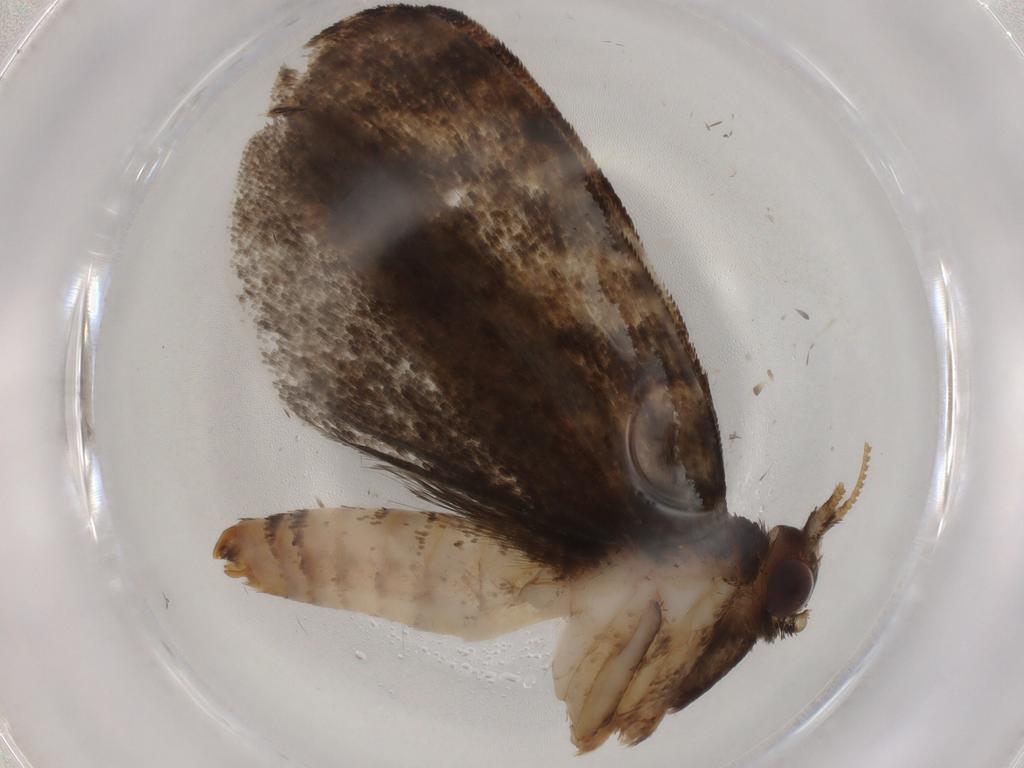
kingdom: Animalia
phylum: Arthropoda
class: Insecta
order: Lepidoptera
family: Tineidae
